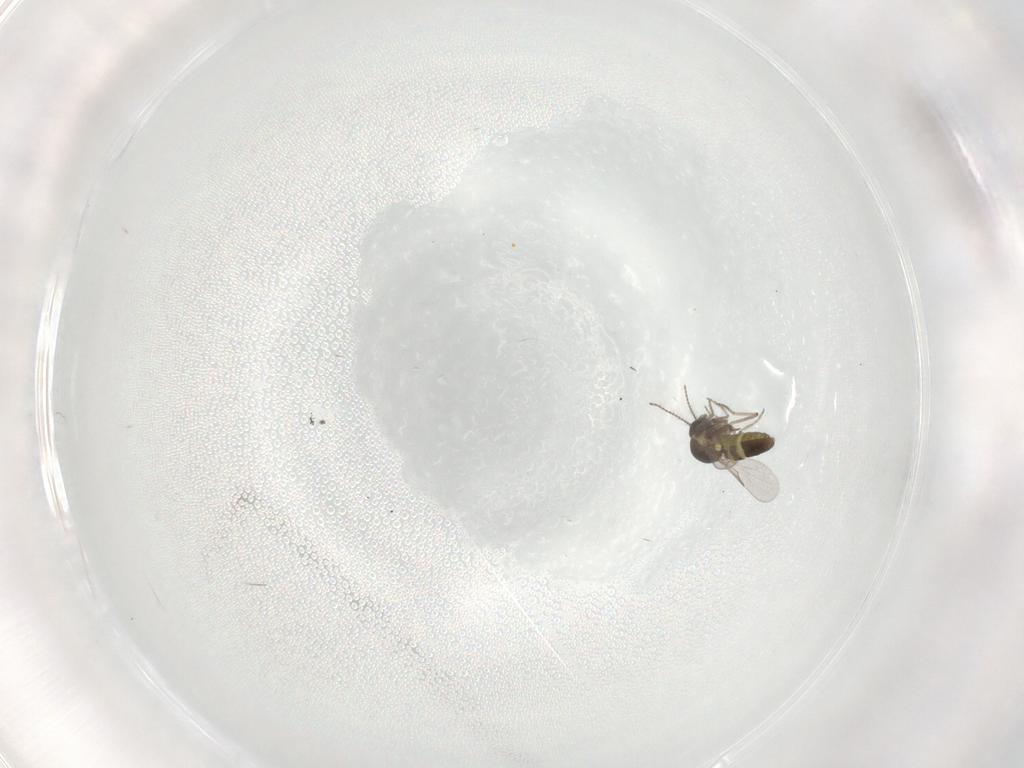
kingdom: Animalia
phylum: Arthropoda
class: Insecta
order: Diptera
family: Ceratopogonidae
